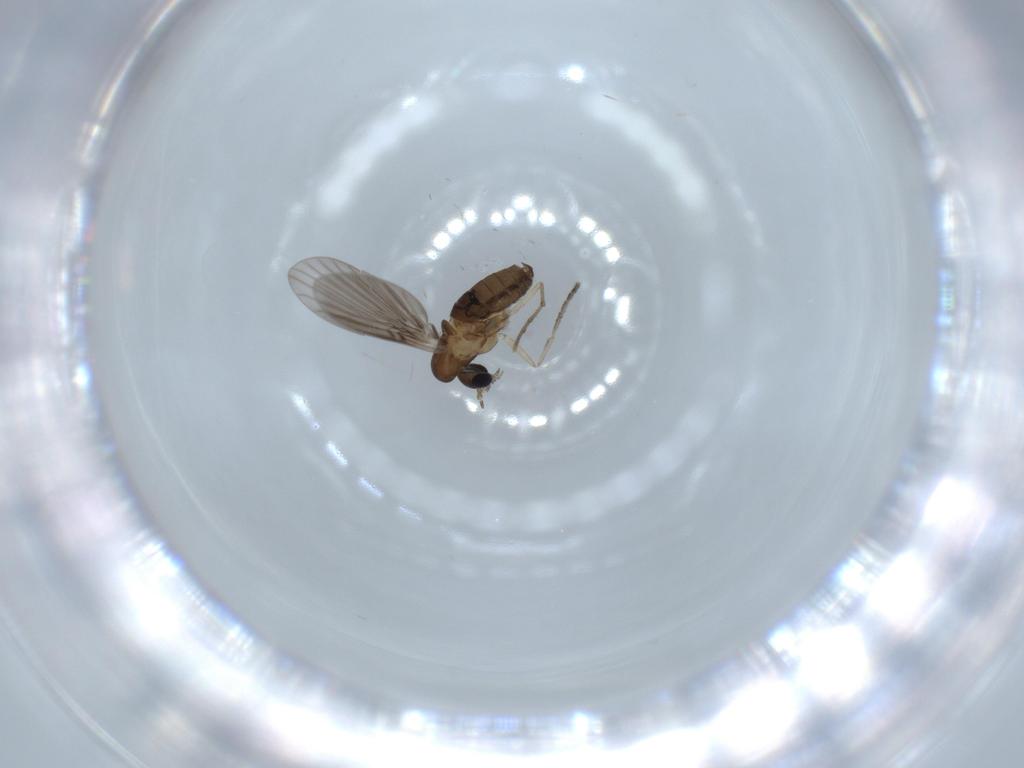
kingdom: Animalia
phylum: Arthropoda
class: Insecta
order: Diptera
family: Psychodidae
